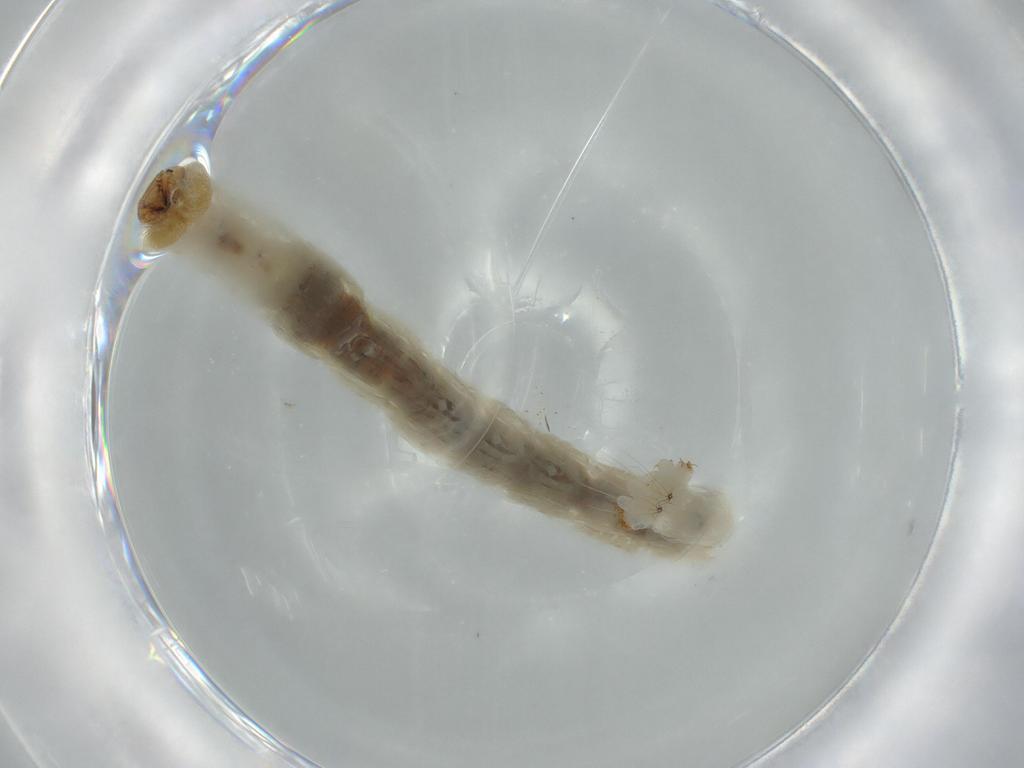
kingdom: Animalia
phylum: Arthropoda
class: Insecta
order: Diptera
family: Chironomidae
